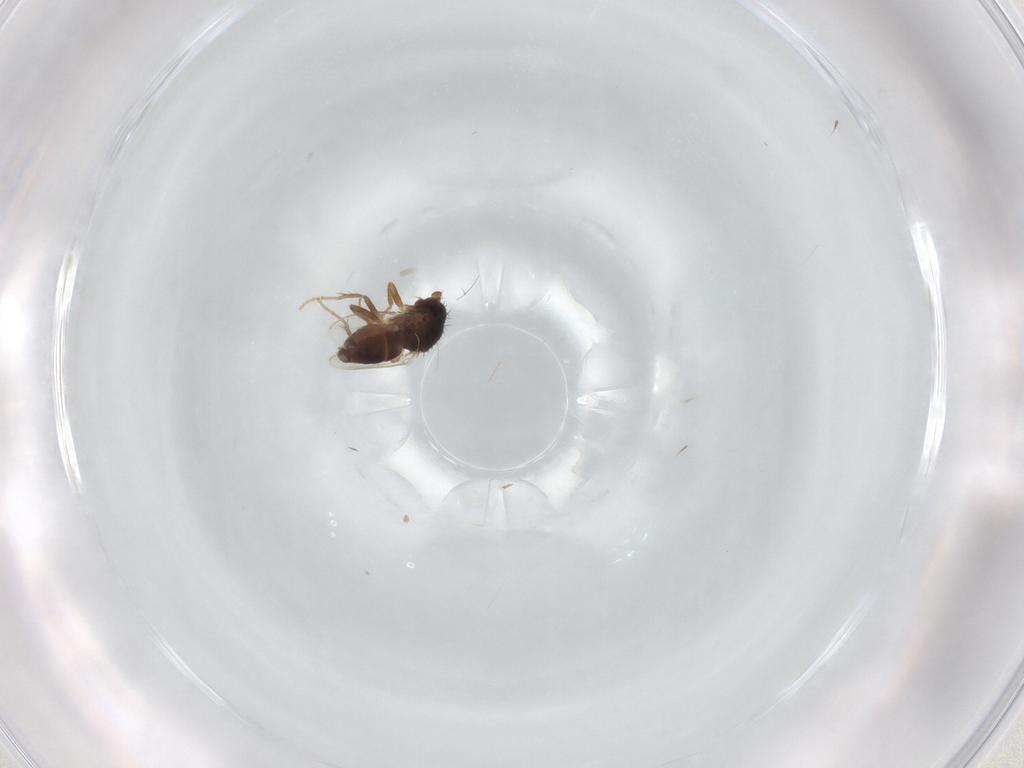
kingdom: Animalia
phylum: Arthropoda
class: Insecta
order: Diptera
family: Sphaeroceridae
